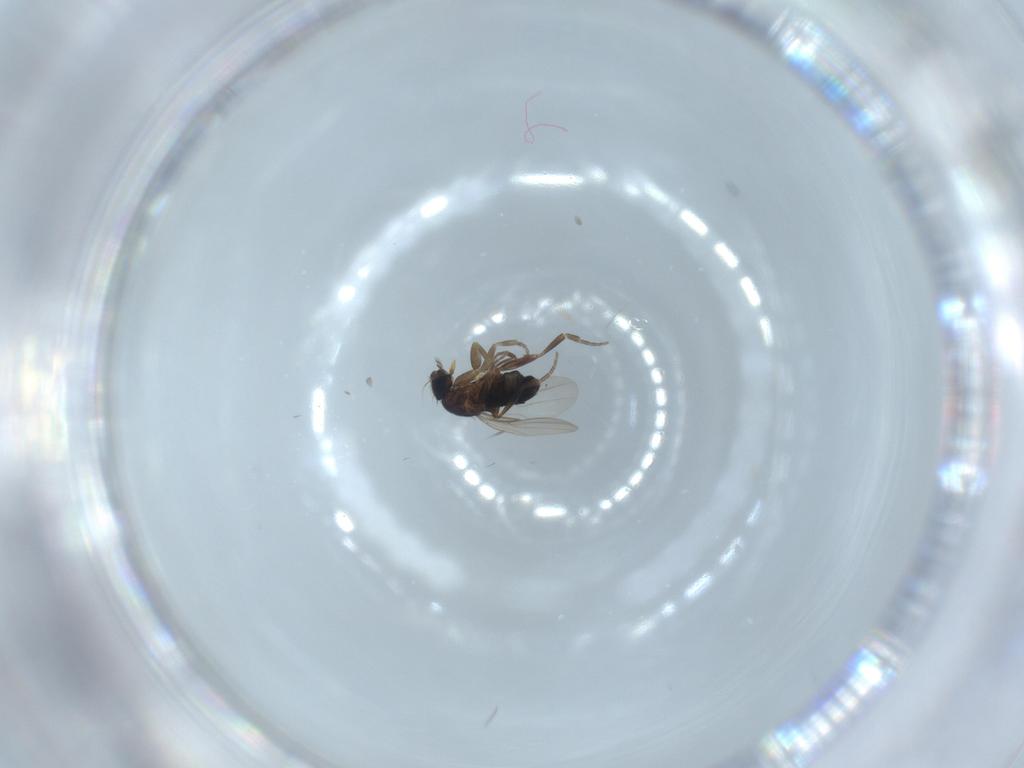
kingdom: Animalia
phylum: Arthropoda
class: Insecta
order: Diptera
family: Phoridae
